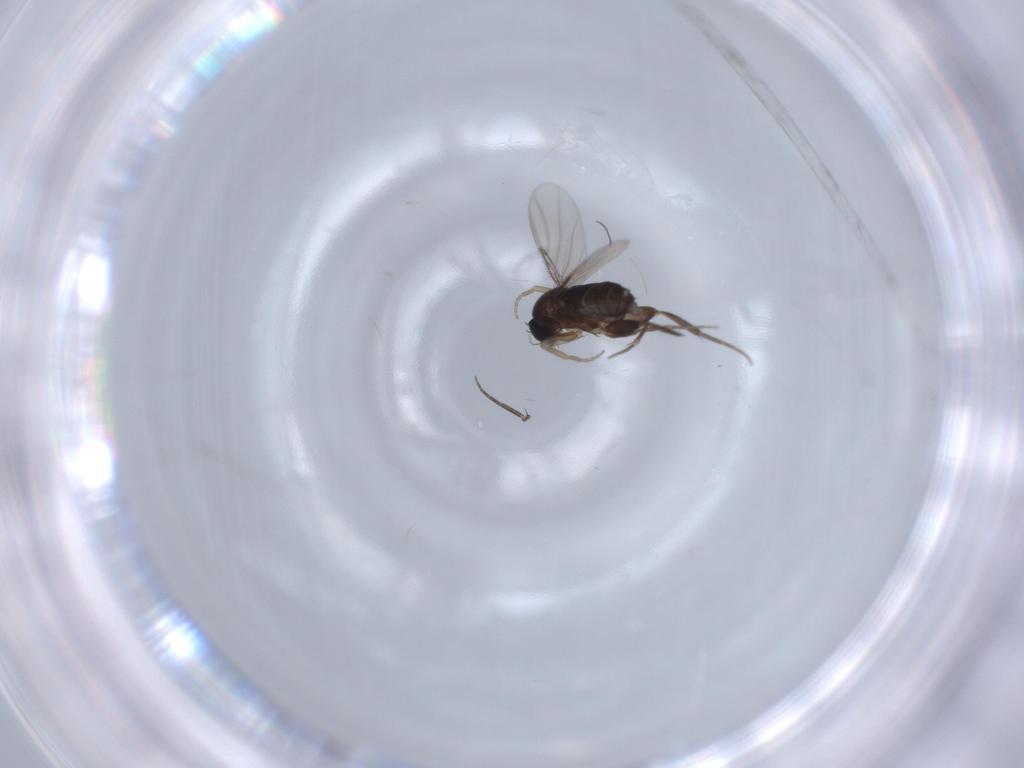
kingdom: Animalia
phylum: Arthropoda
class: Insecta
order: Diptera
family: Phoridae
